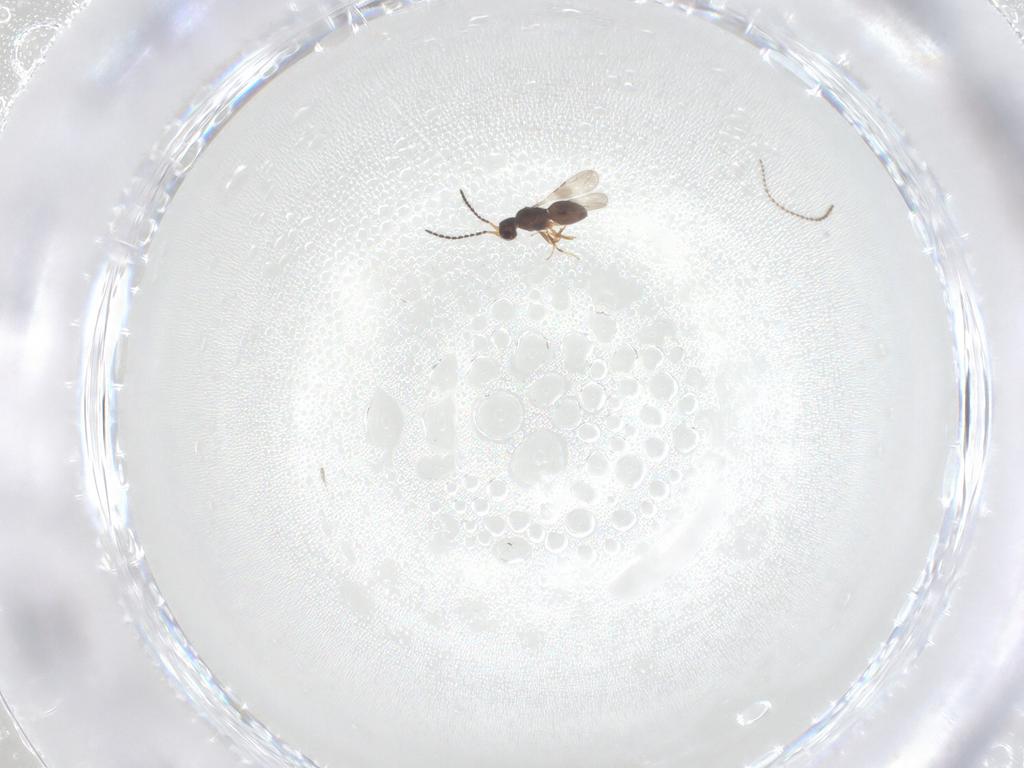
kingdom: Animalia
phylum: Arthropoda
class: Insecta
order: Hymenoptera
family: Ceraphronidae
